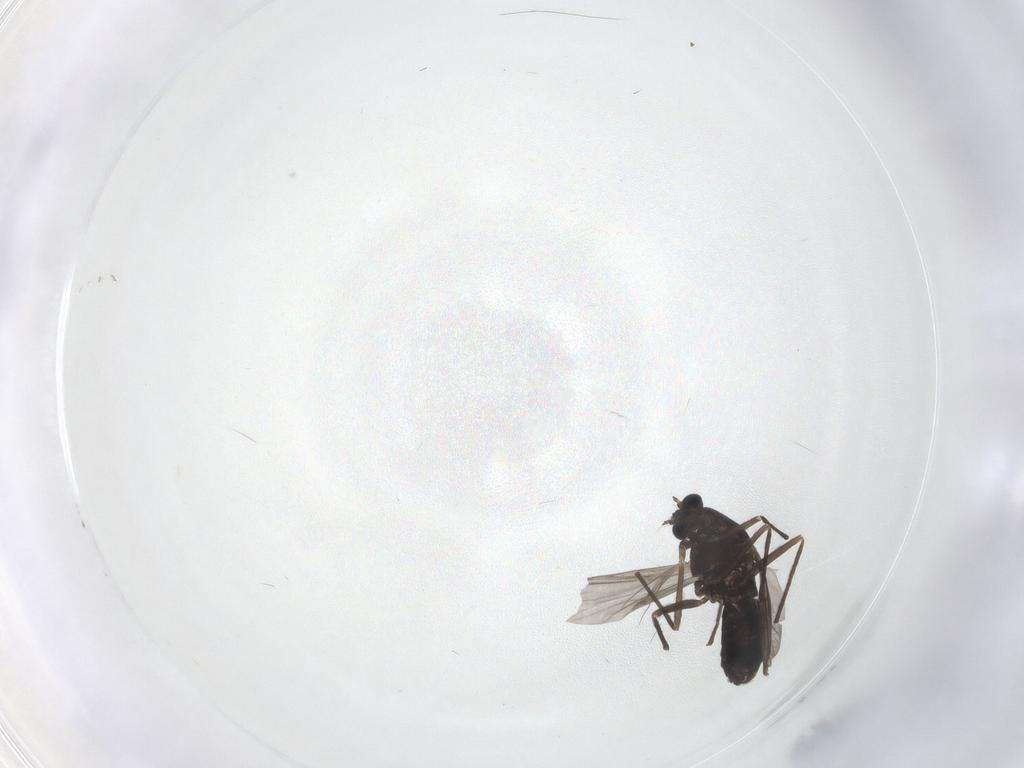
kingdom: Animalia
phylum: Arthropoda
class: Insecta
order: Diptera
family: Chironomidae
